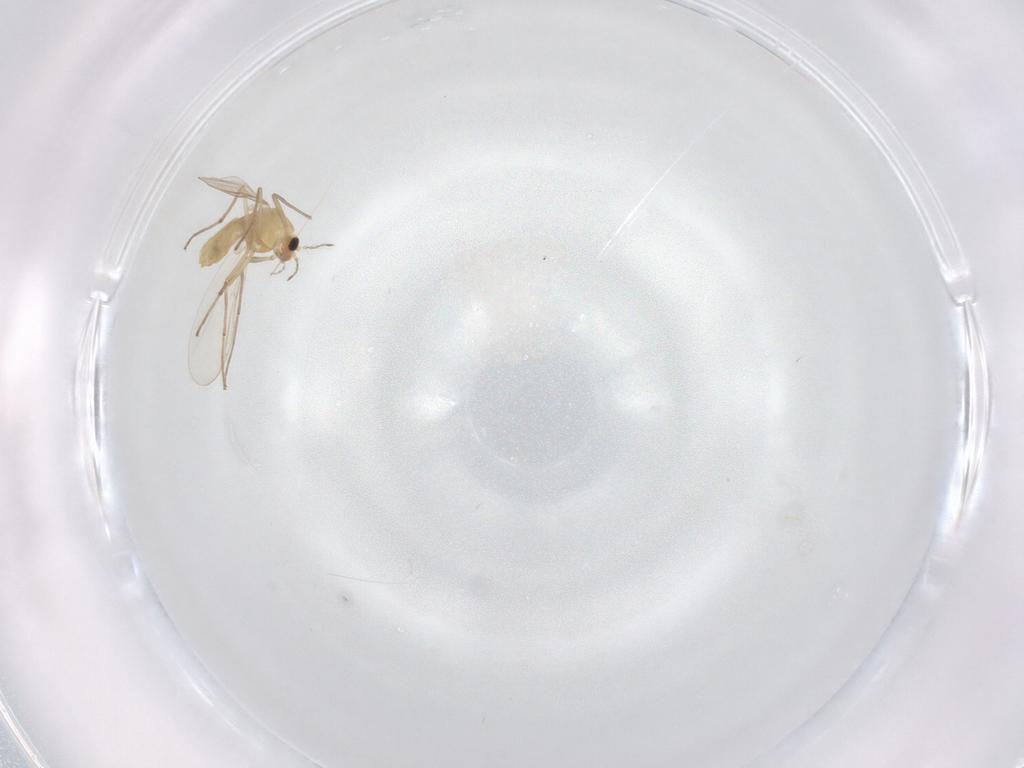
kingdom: Animalia
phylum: Arthropoda
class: Insecta
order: Diptera
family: Chironomidae
